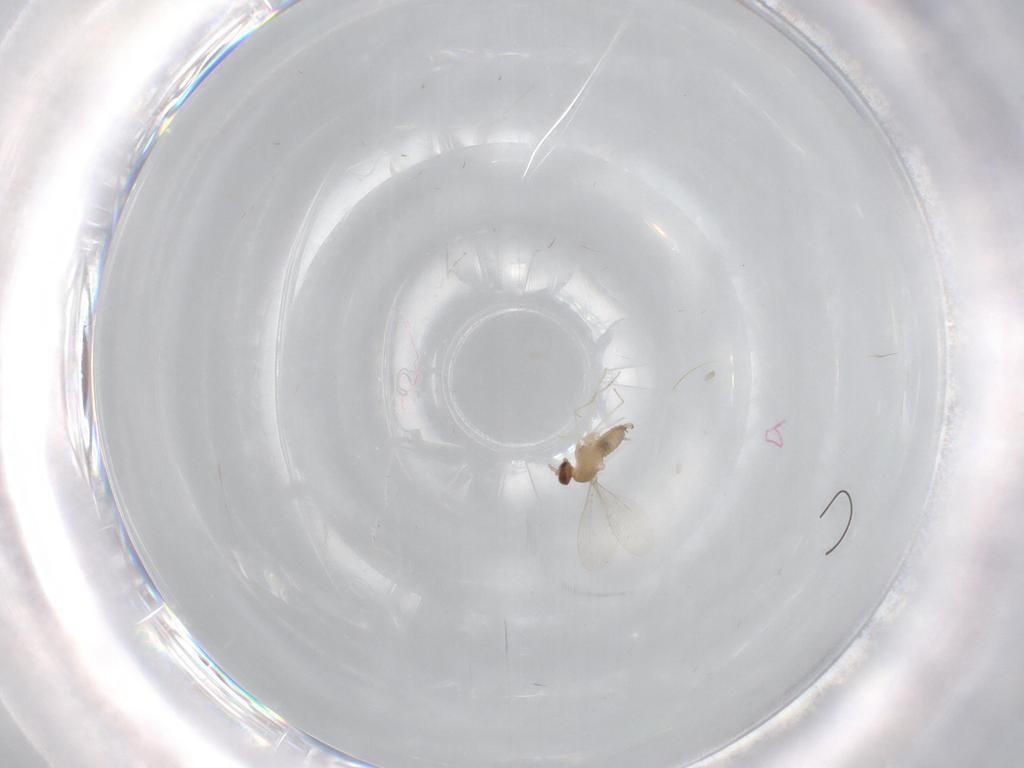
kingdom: Animalia
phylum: Arthropoda
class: Insecta
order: Diptera
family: Cecidomyiidae
